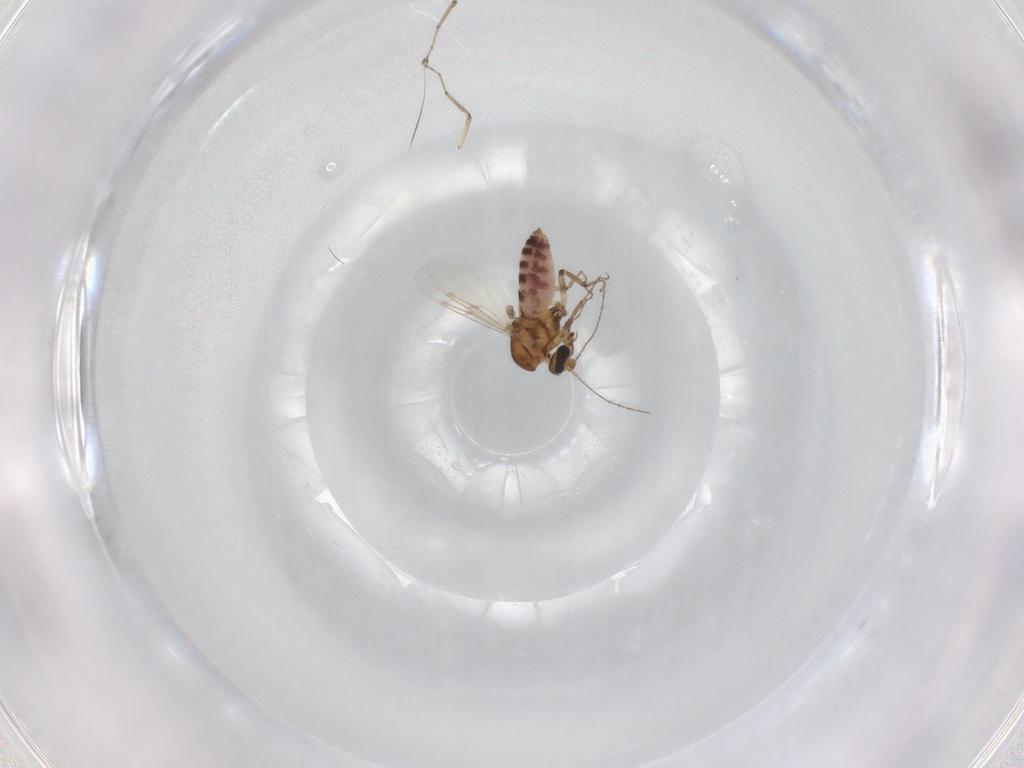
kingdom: Animalia
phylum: Arthropoda
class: Insecta
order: Diptera
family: Ceratopogonidae
